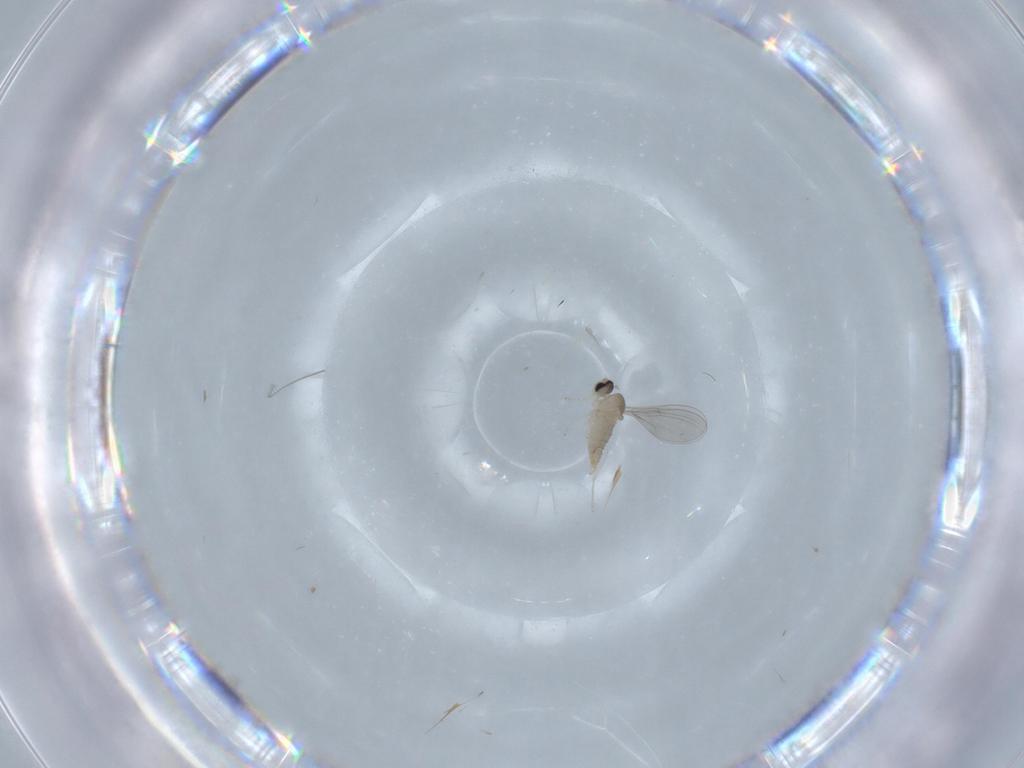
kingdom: Animalia
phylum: Arthropoda
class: Insecta
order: Diptera
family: Cecidomyiidae
